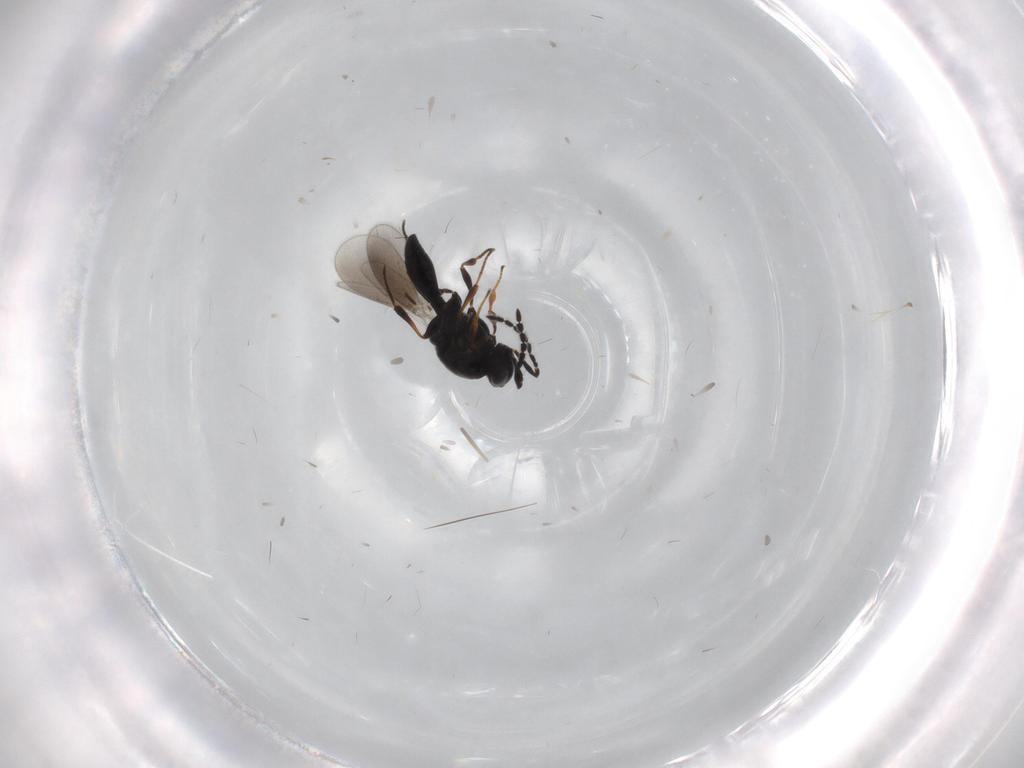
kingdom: Animalia
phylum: Arthropoda
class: Insecta
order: Hymenoptera
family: Platygastridae
